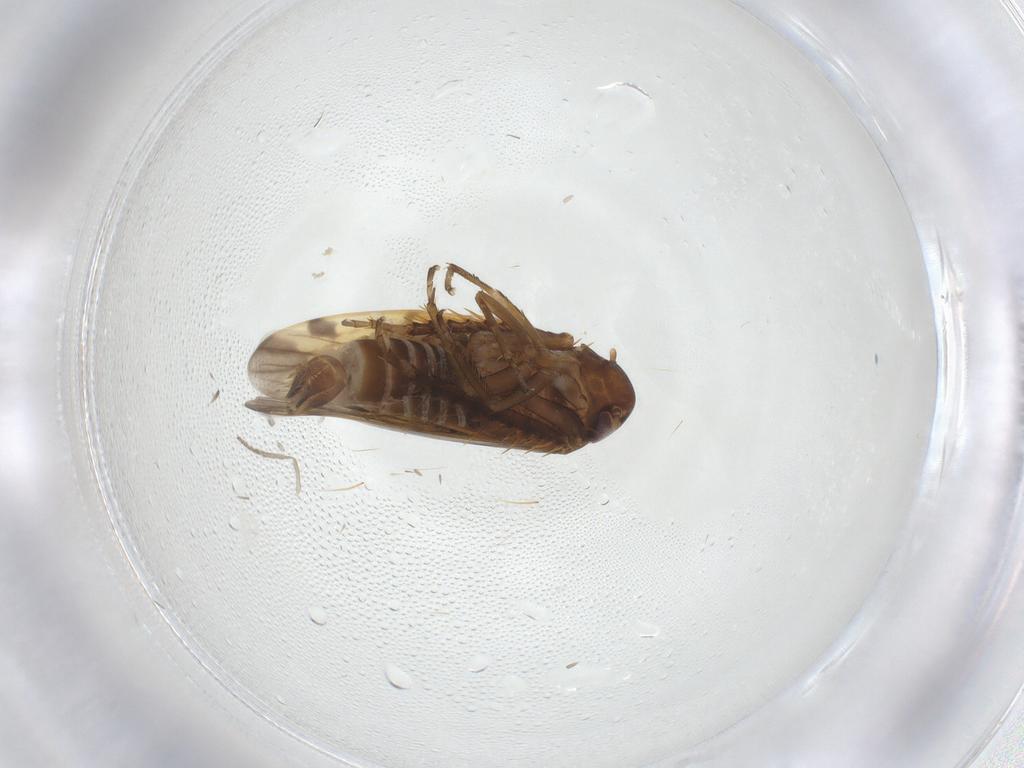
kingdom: Animalia
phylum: Arthropoda
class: Insecta
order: Hemiptera
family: Cicadellidae
